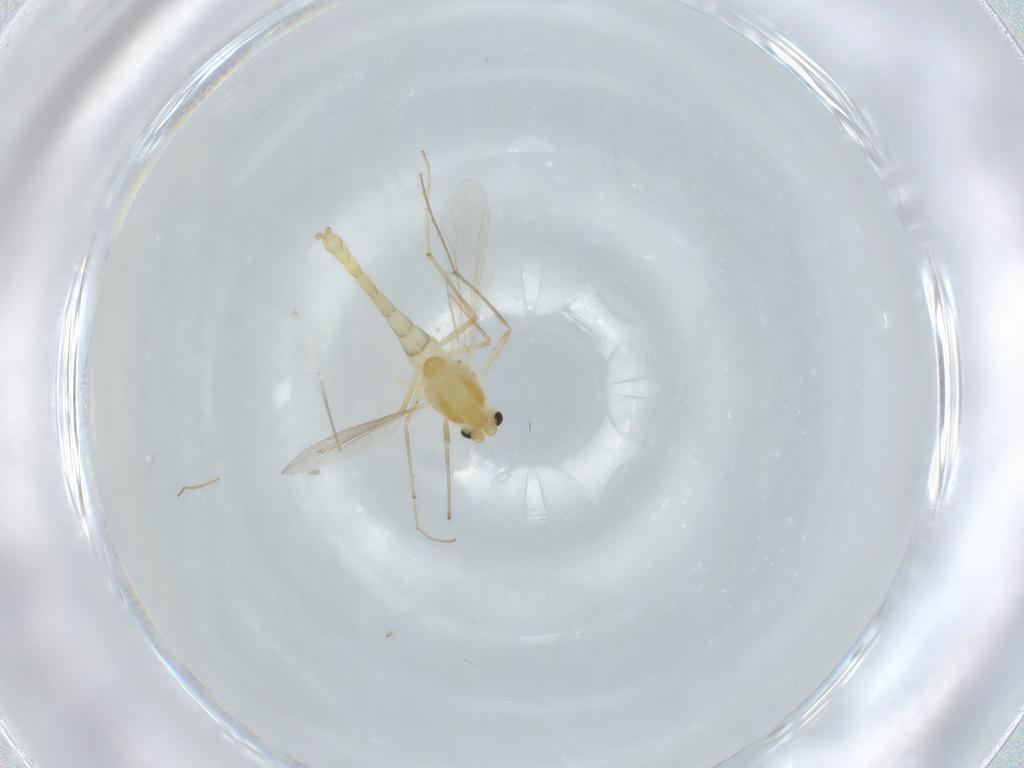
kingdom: Animalia
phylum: Arthropoda
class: Insecta
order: Diptera
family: Chironomidae
